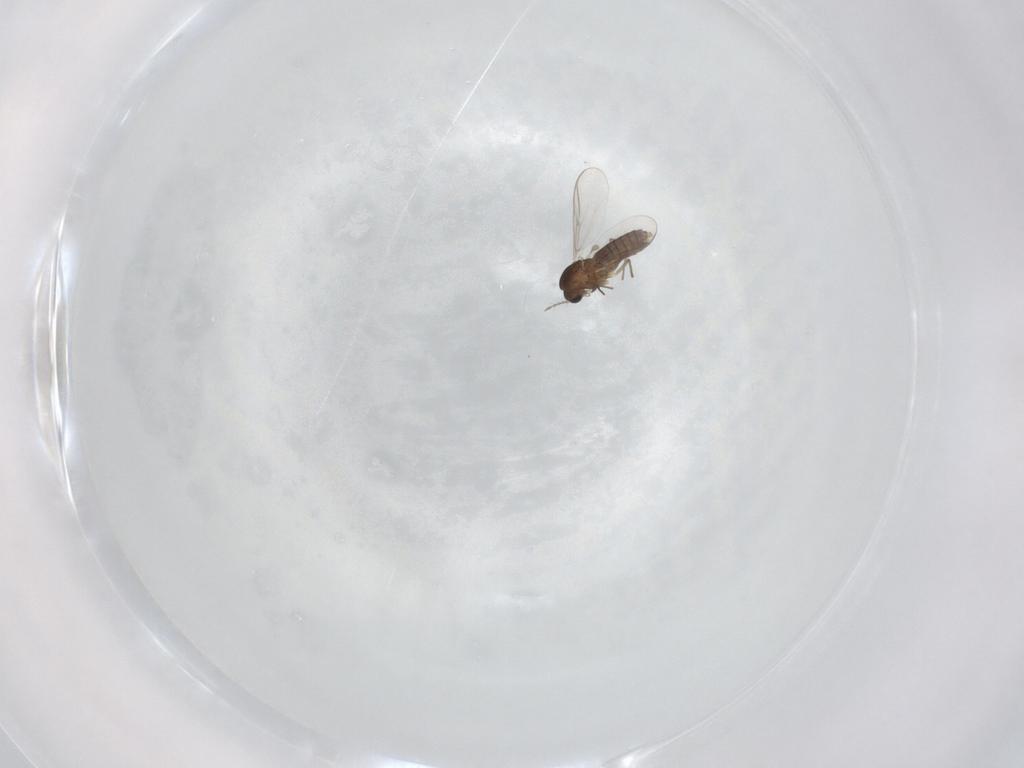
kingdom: Animalia
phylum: Arthropoda
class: Insecta
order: Diptera
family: Chironomidae
